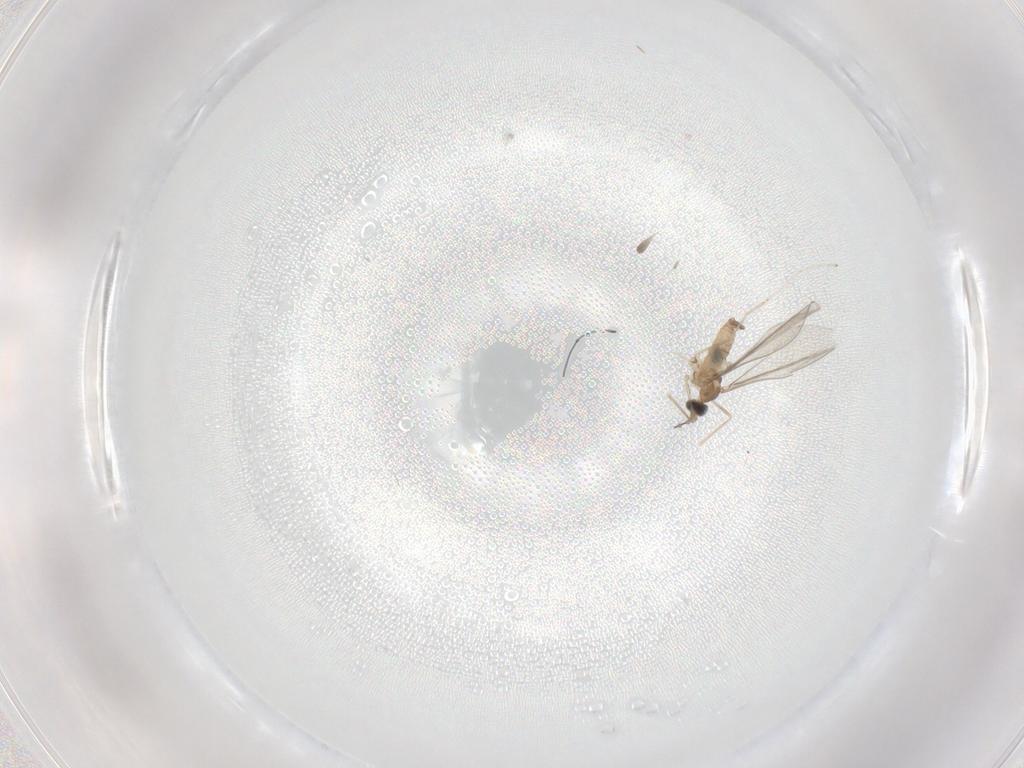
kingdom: Animalia
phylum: Arthropoda
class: Insecta
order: Diptera
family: Cecidomyiidae
